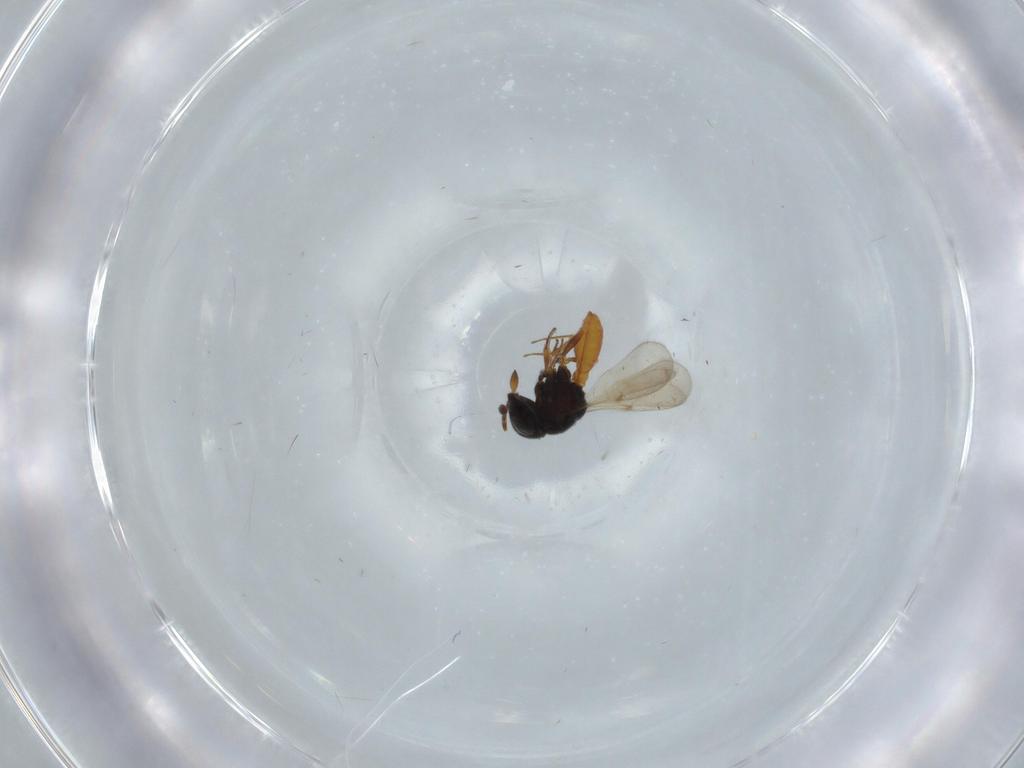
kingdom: Animalia
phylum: Arthropoda
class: Insecta
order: Hymenoptera
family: Scelionidae
